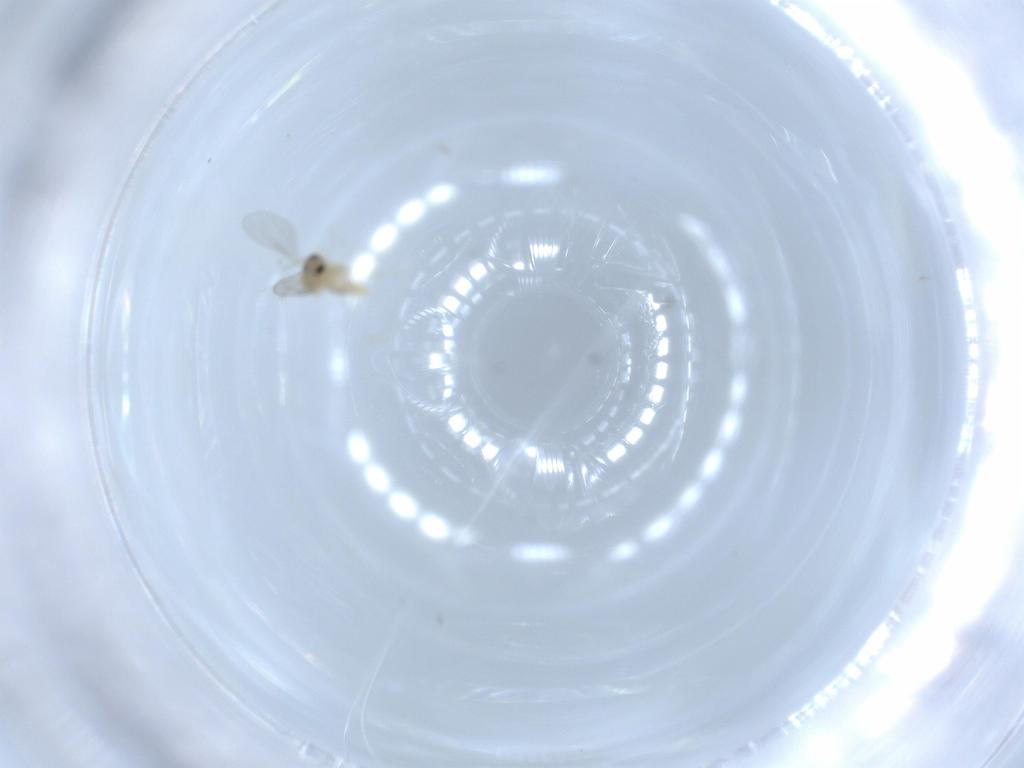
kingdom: Animalia
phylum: Arthropoda
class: Insecta
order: Diptera
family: Cecidomyiidae
